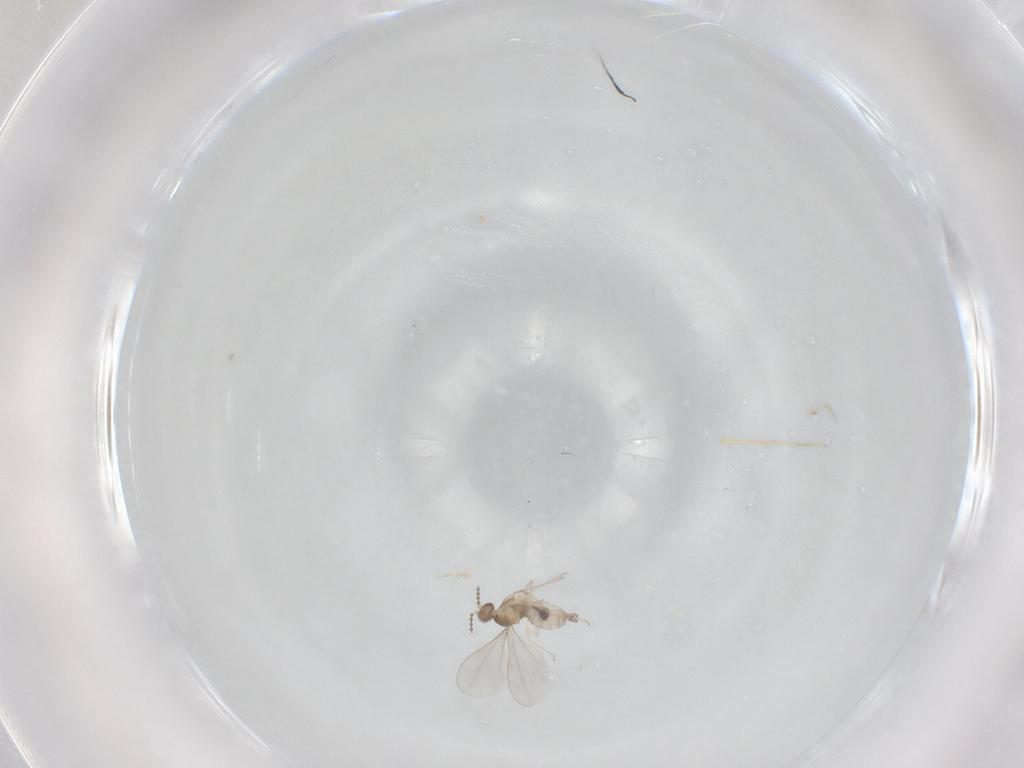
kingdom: Animalia
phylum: Arthropoda
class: Insecta
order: Diptera
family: Cecidomyiidae
